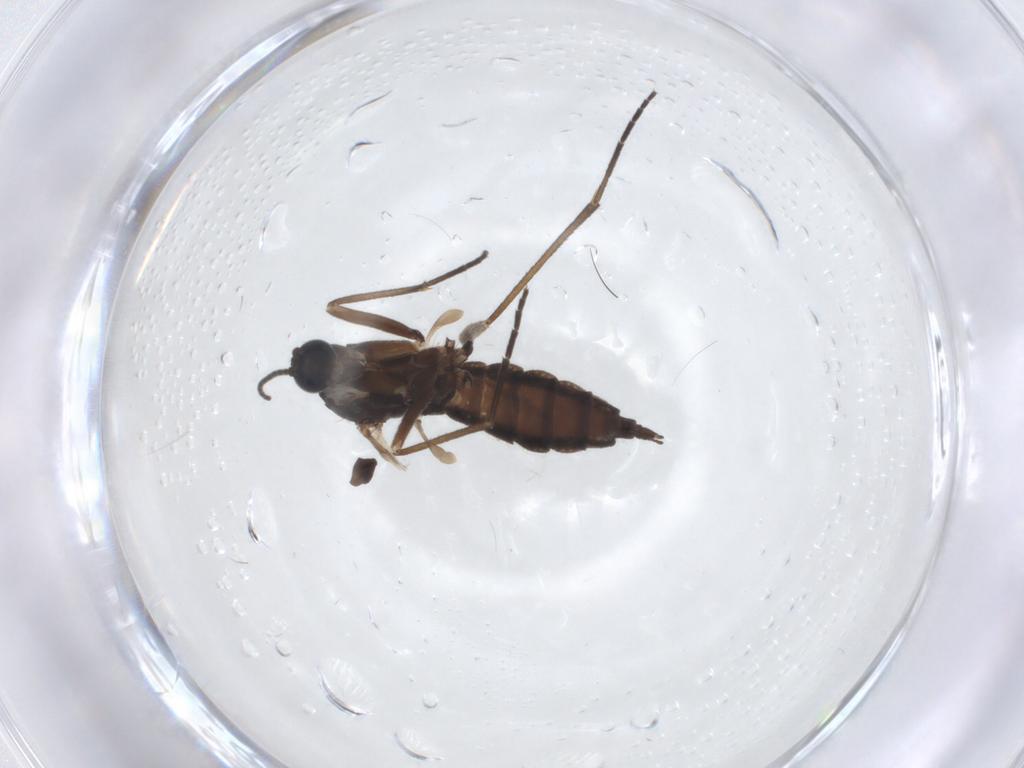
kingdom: Animalia
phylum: Arthropoda
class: Insecta
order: Diptera
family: Sciaridae
